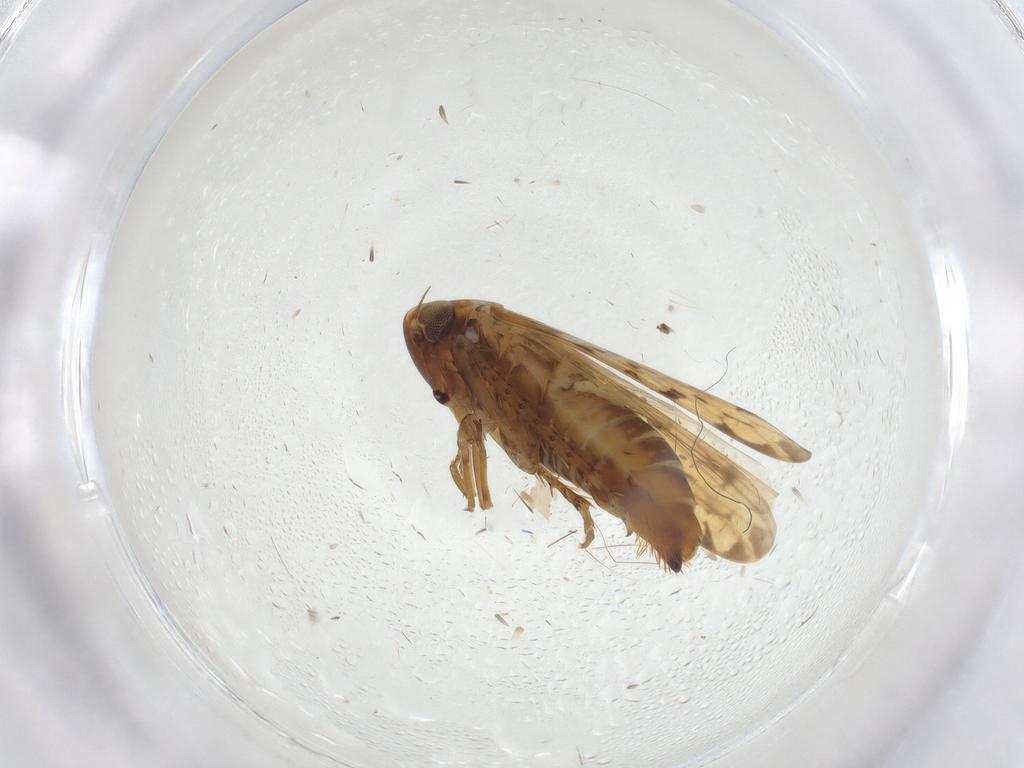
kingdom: Animalia
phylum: Arthropoda
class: Insecta
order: Hemiptera
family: Cicadellidae
